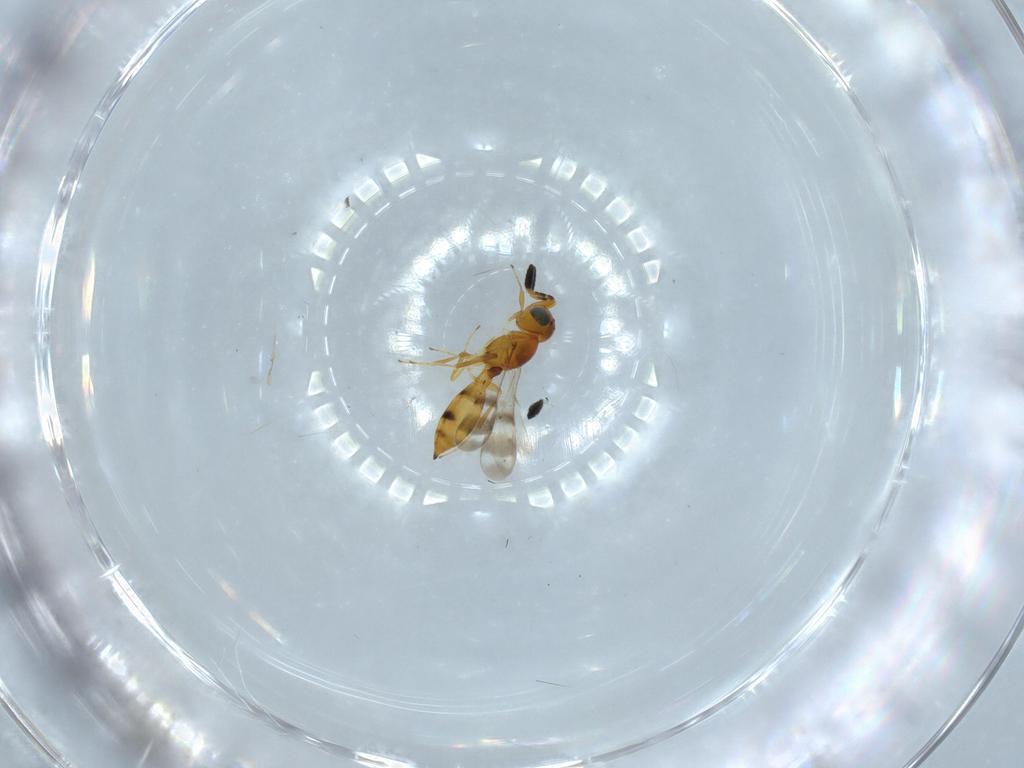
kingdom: Animalia
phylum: Arthropoda
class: Insecta
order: Hymenoptera
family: Scelionidae
